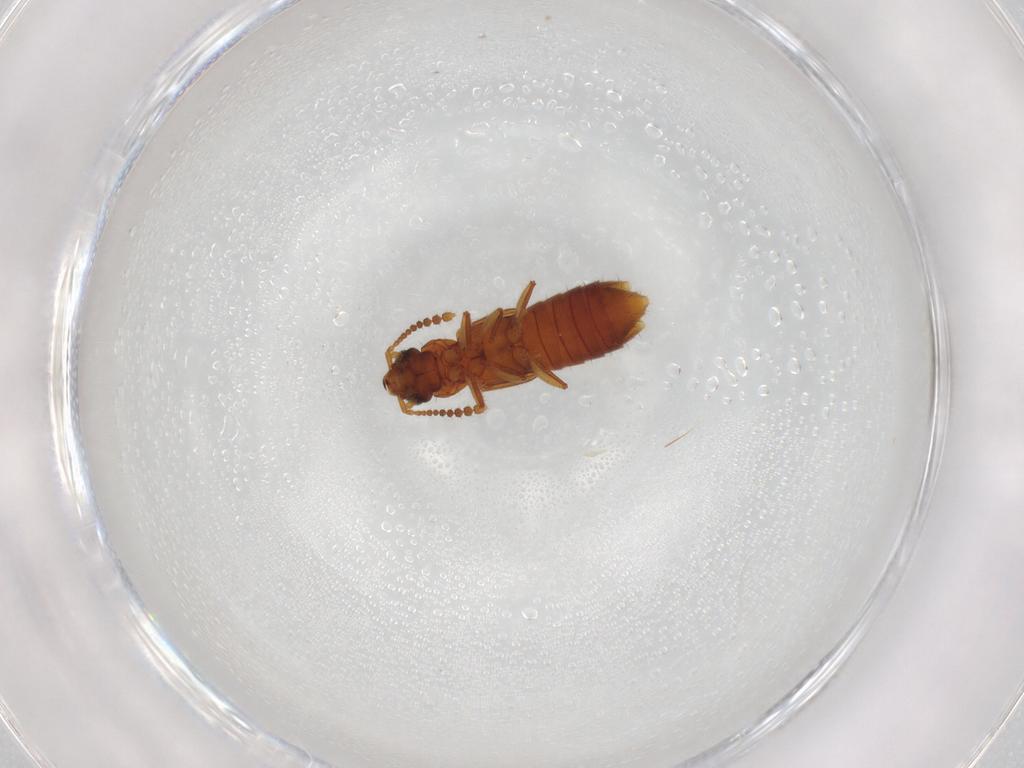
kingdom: Animalia
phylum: Arthropoda
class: Insecta
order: Coleoptera
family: Staphylinidae
